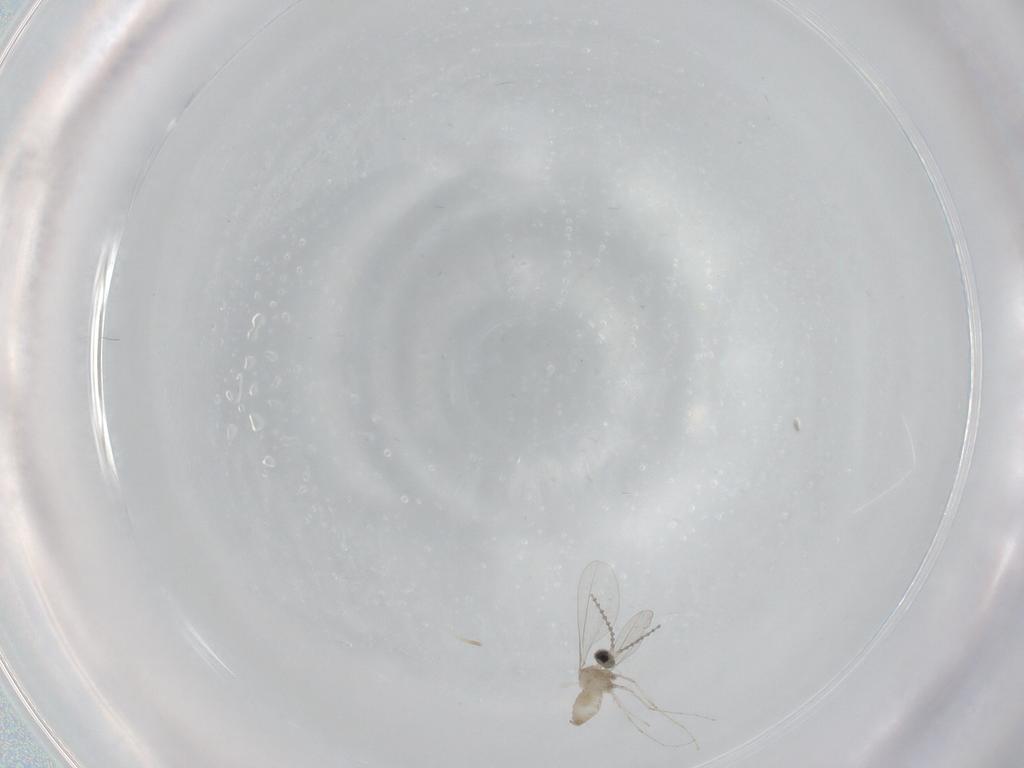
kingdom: Animalia
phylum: Arthropoda
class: Insecta
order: Diptera
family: Cecidomyiidae
